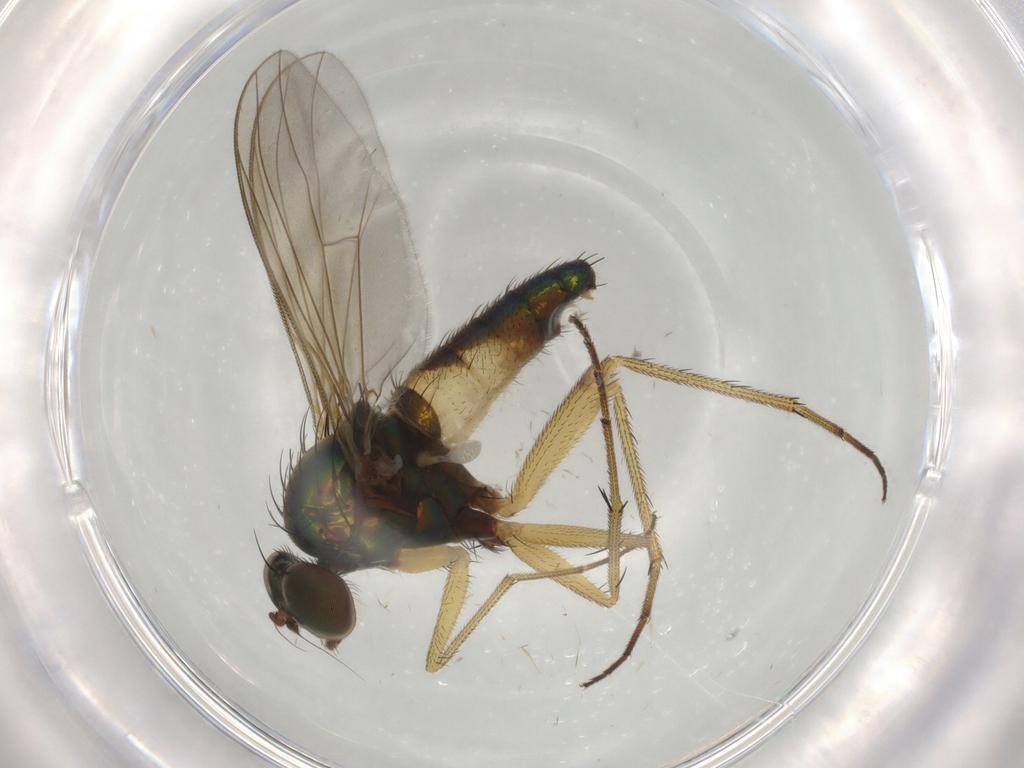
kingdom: Animalia
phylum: Arthropoda
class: Insecta
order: Diptera
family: Dolichopodidae
